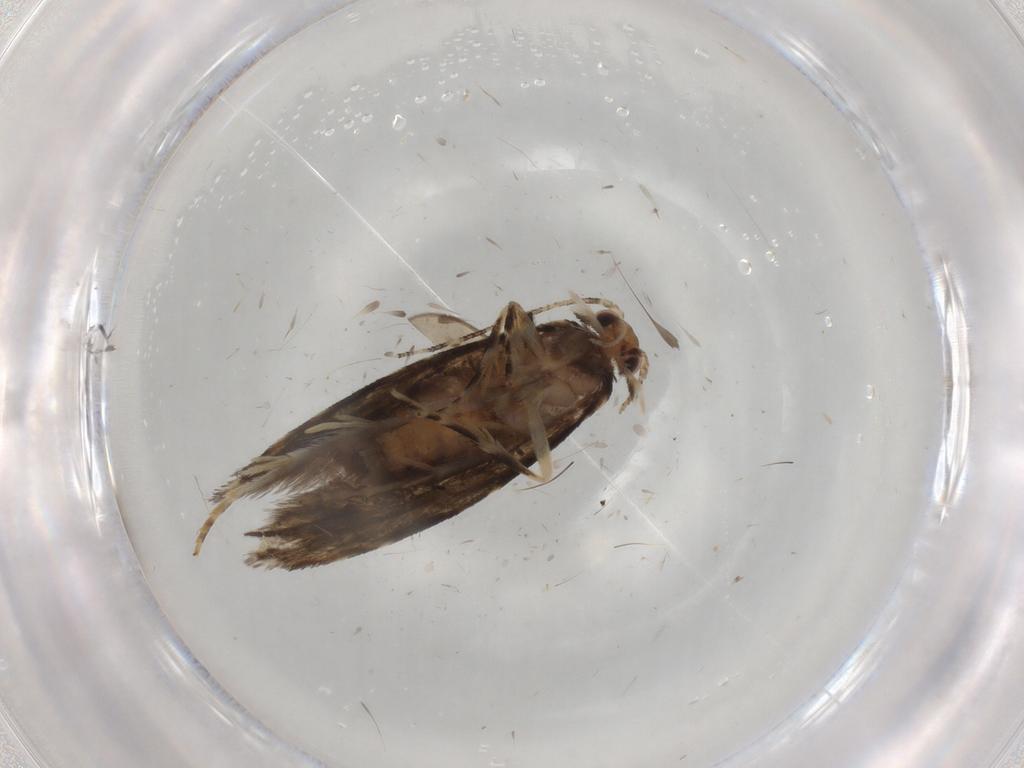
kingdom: Animalia
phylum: Arthropoda
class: Insecta
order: Lepidoptera
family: Tineidae
